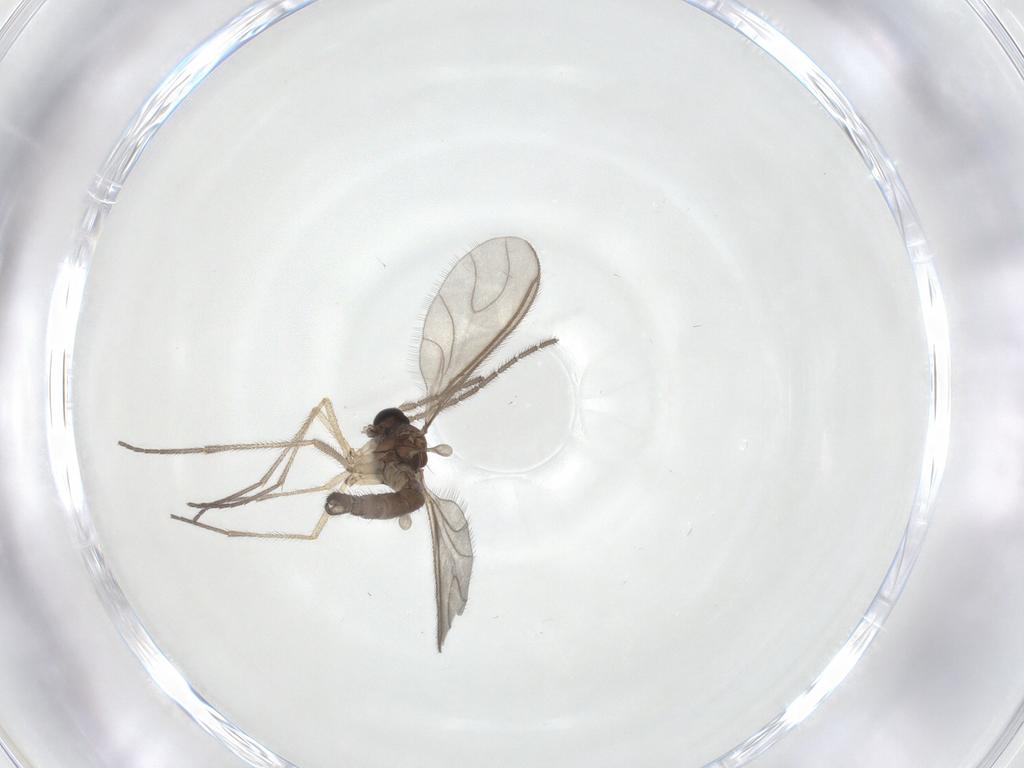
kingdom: Animalia
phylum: Arthropoda
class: Insecta
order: Diptera
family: Sciaridae
